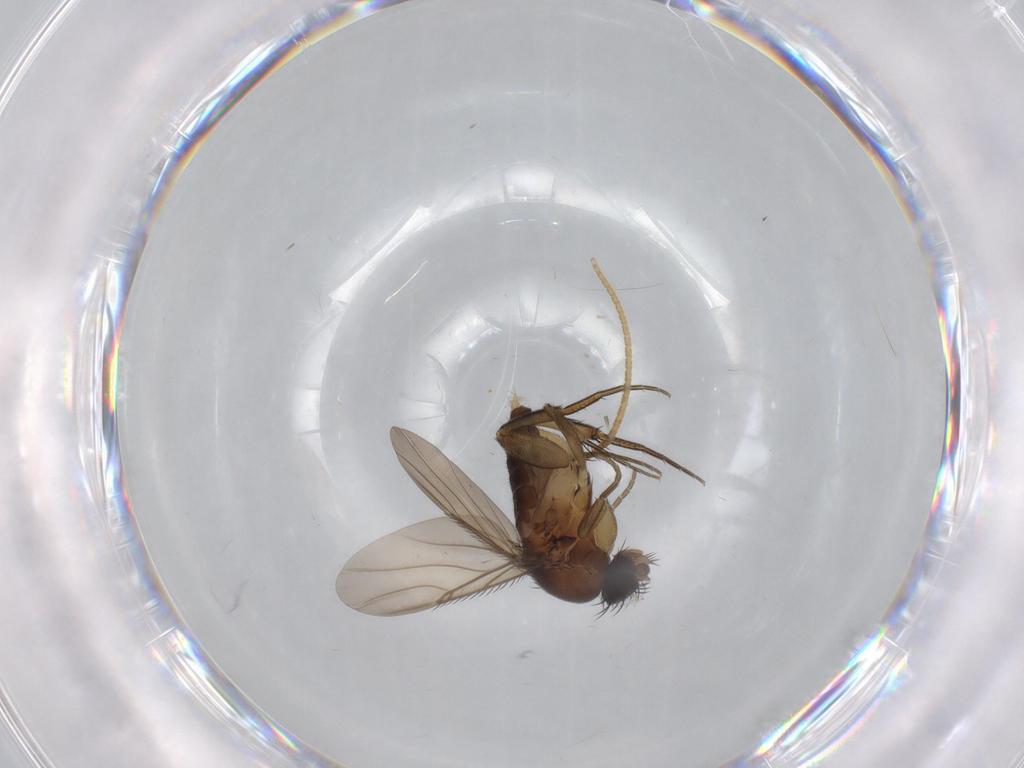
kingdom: Animalia
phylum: Arthropoda
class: Insecta
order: Diptera
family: Phoridae
